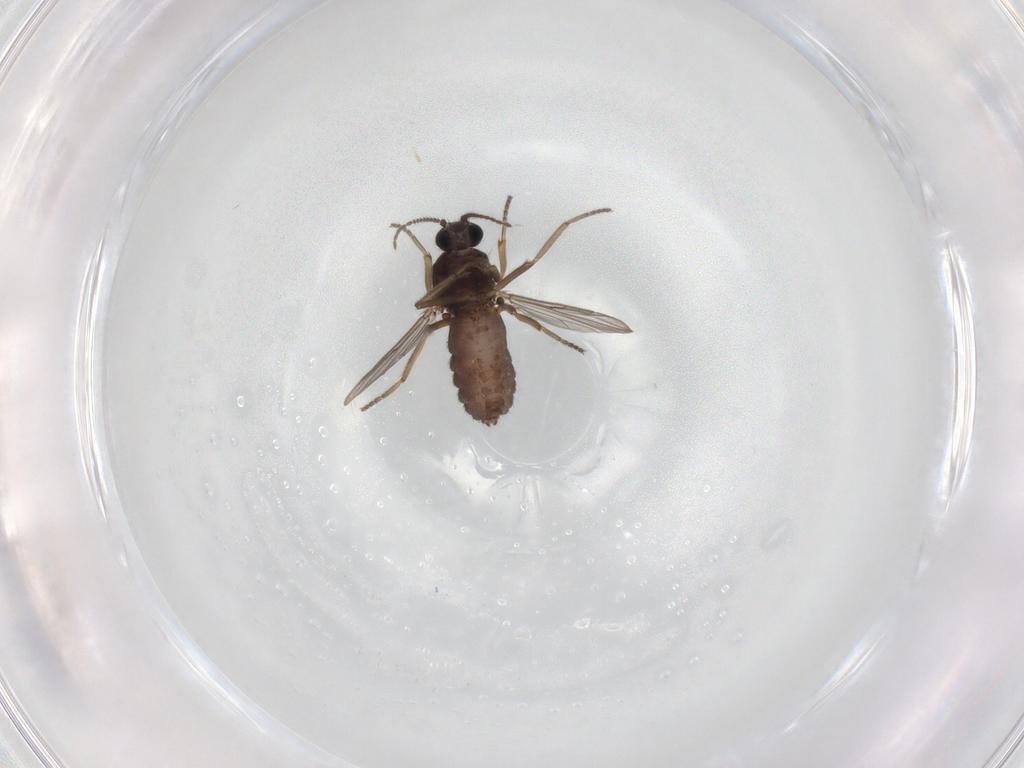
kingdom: Animalia
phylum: Arthropoda
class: Insecta
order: Diptera
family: Ceratopogonidae
